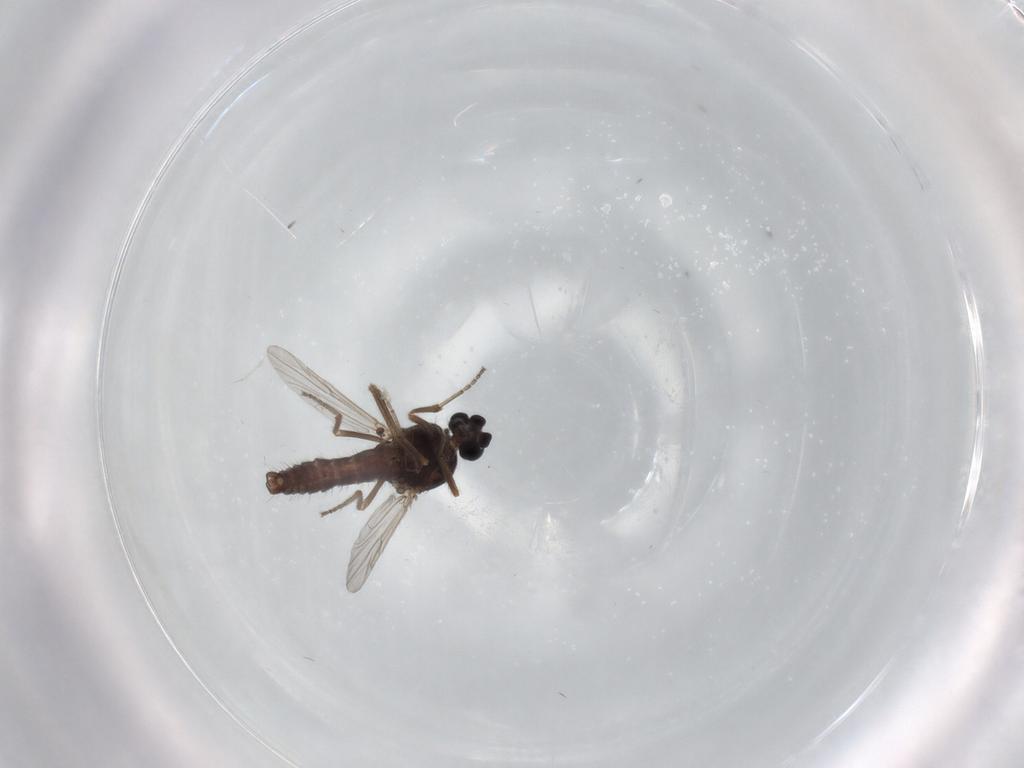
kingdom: Animalia
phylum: Arthropoda
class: Insecta
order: Diptera
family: Ceratopogonidae
